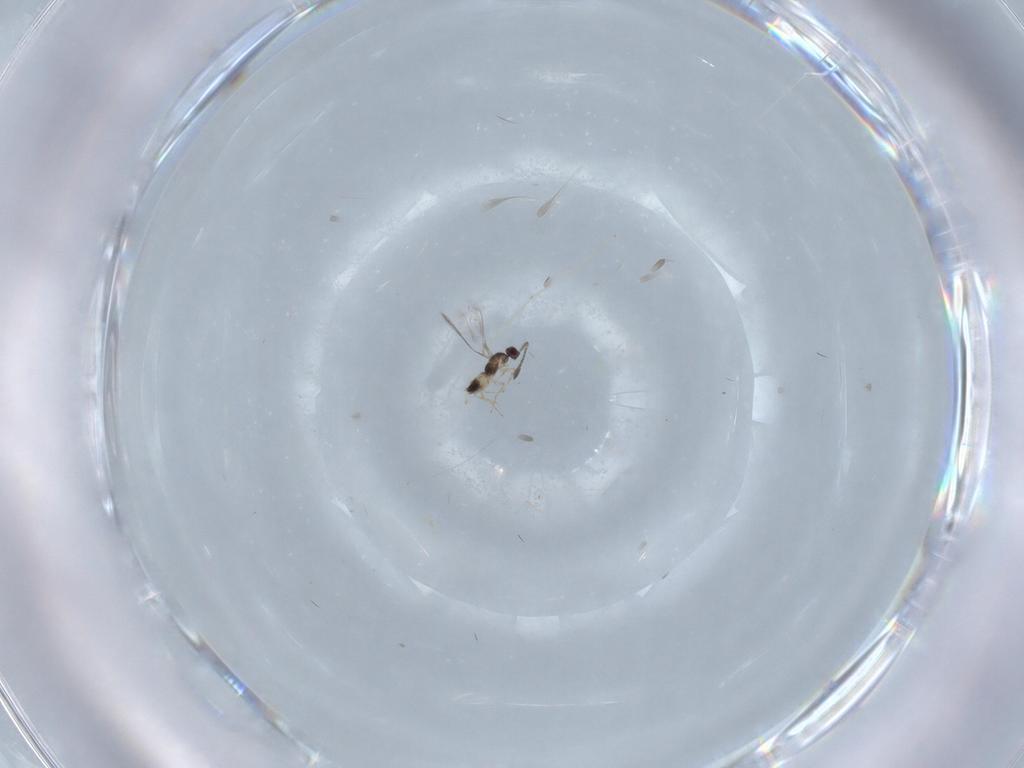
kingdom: Animalia
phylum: Arthropoda
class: Insecta
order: Hymenoptera
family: Mymaridae
